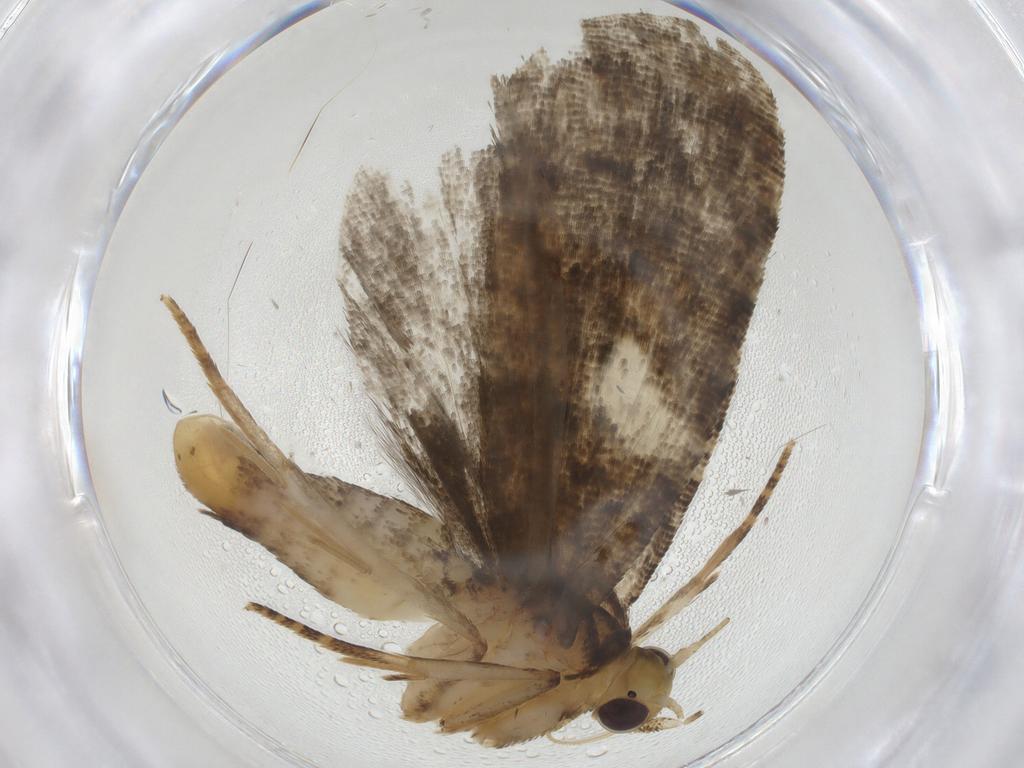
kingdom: Animalia
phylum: Arthropoda
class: Insecta
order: Lepidoptera
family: Tortricidae
